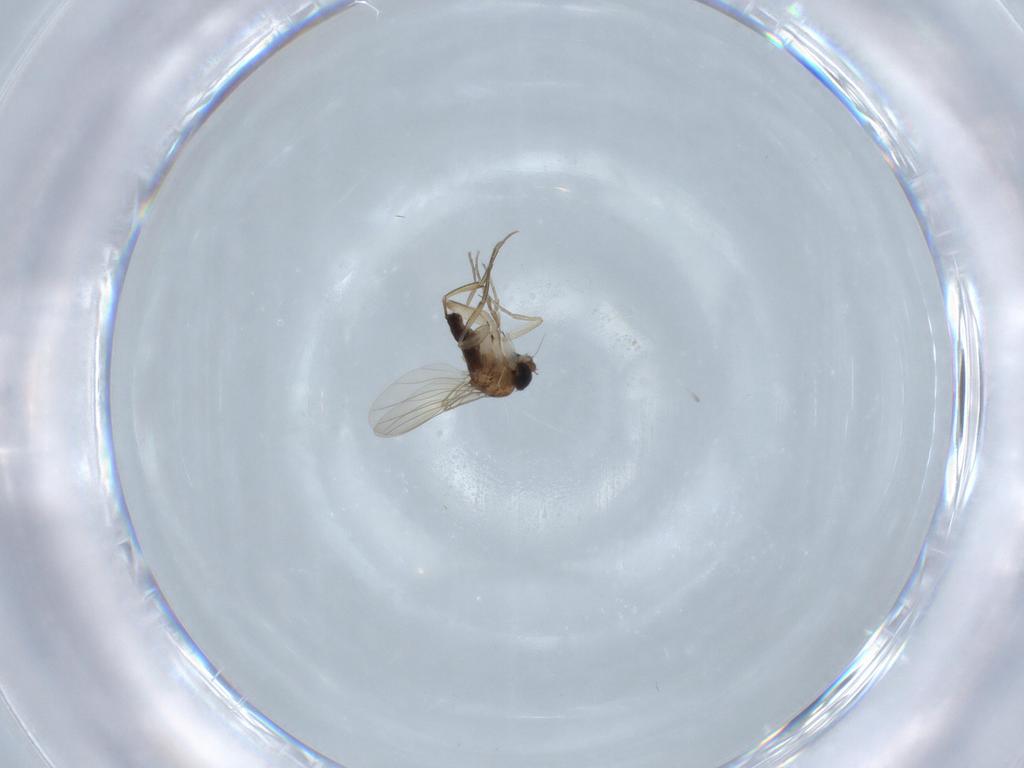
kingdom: Animalia
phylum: Arthropoda
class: Insecta
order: Diptera
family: Phoridae
